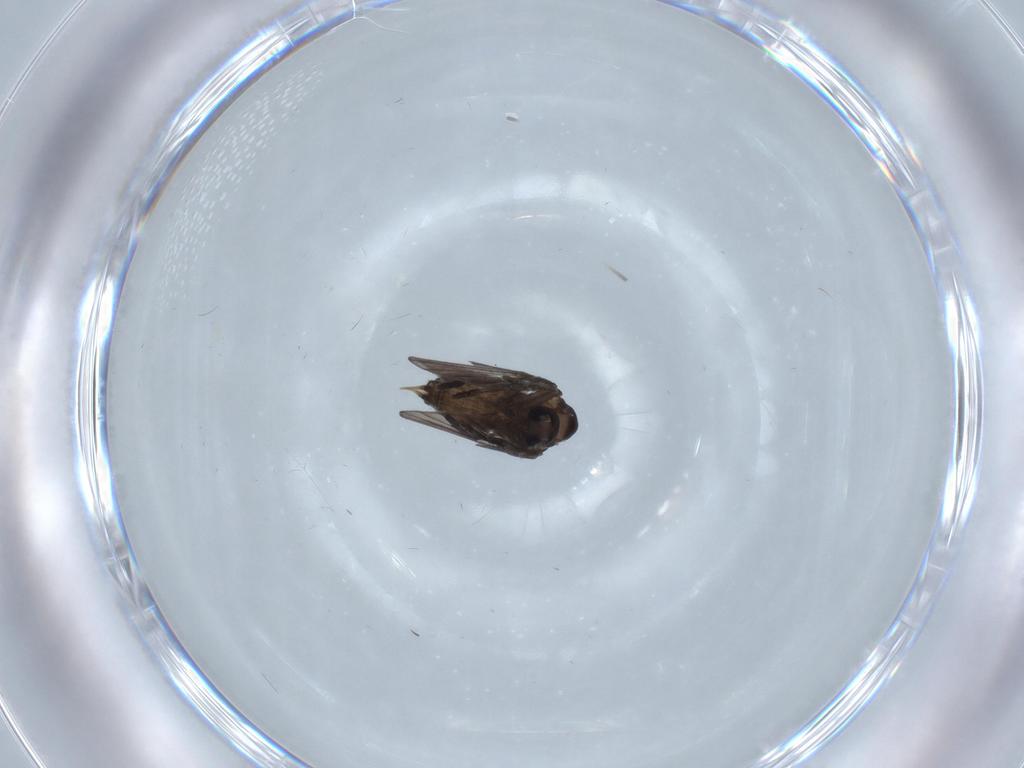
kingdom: Animalia
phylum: Arthropoda
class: Insecta
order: Diptera
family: Psychodidae
